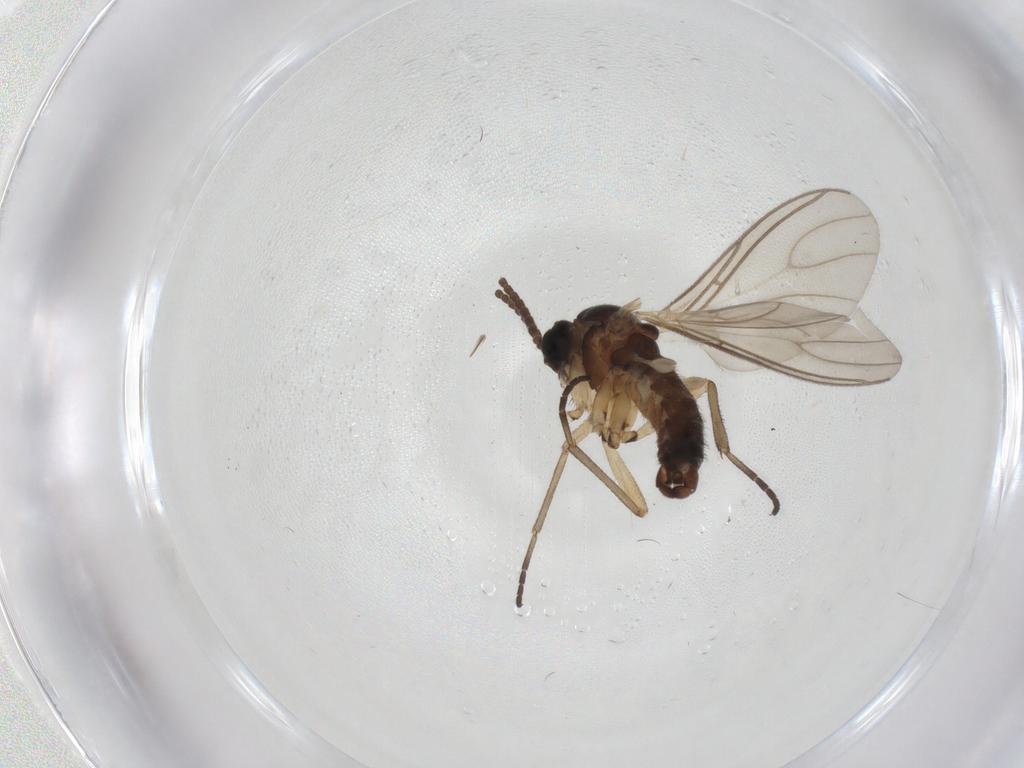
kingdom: Animalia
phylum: Arthropoda
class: Insecta
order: Diptera
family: Sciaridae
